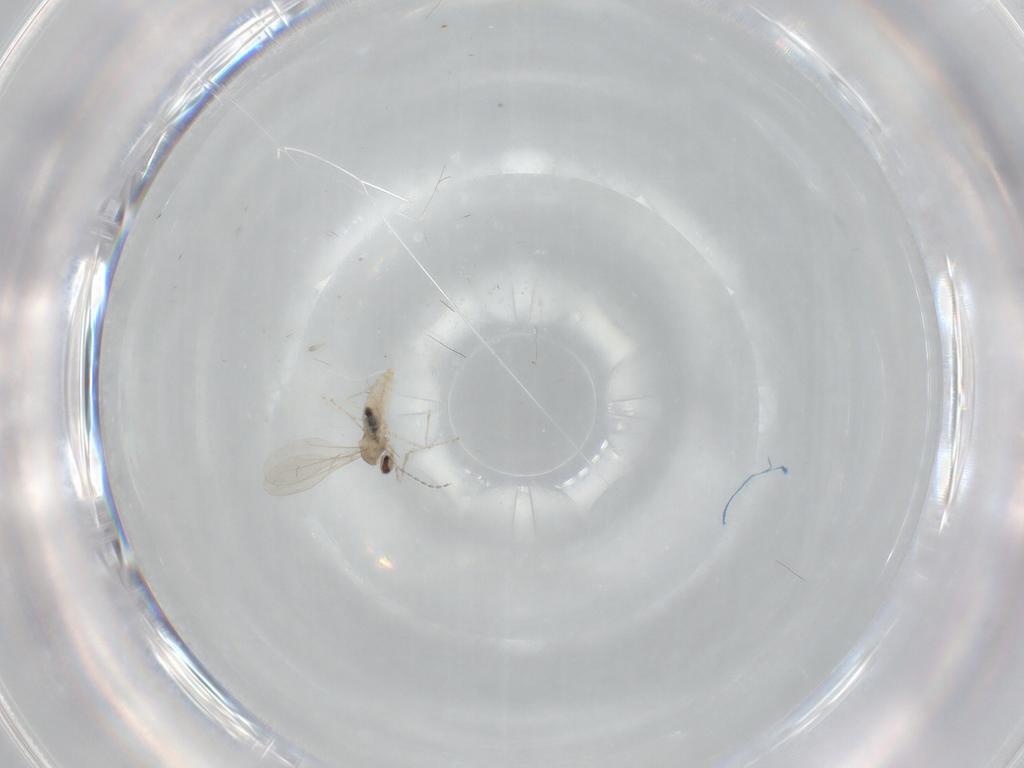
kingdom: Animalia
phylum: Arthropoda
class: Insecta
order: Diptera
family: Cecidomyiidae
